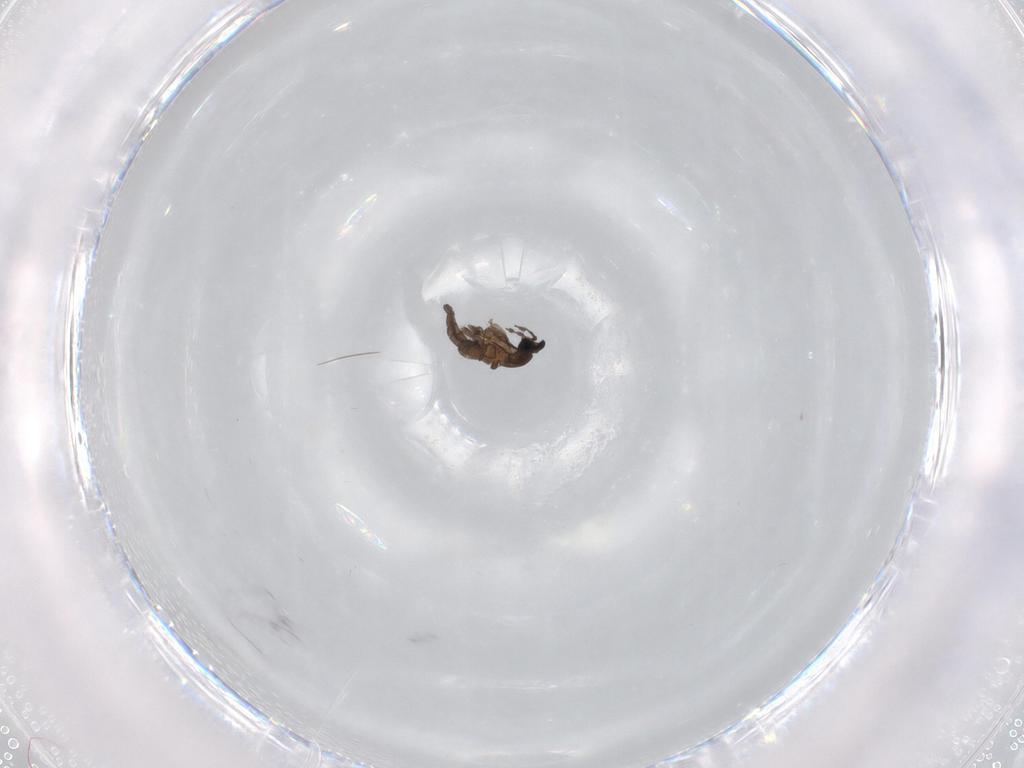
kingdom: Animalia
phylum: Arthropoda
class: Insecta
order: Diptera
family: Cecidomyiidae
